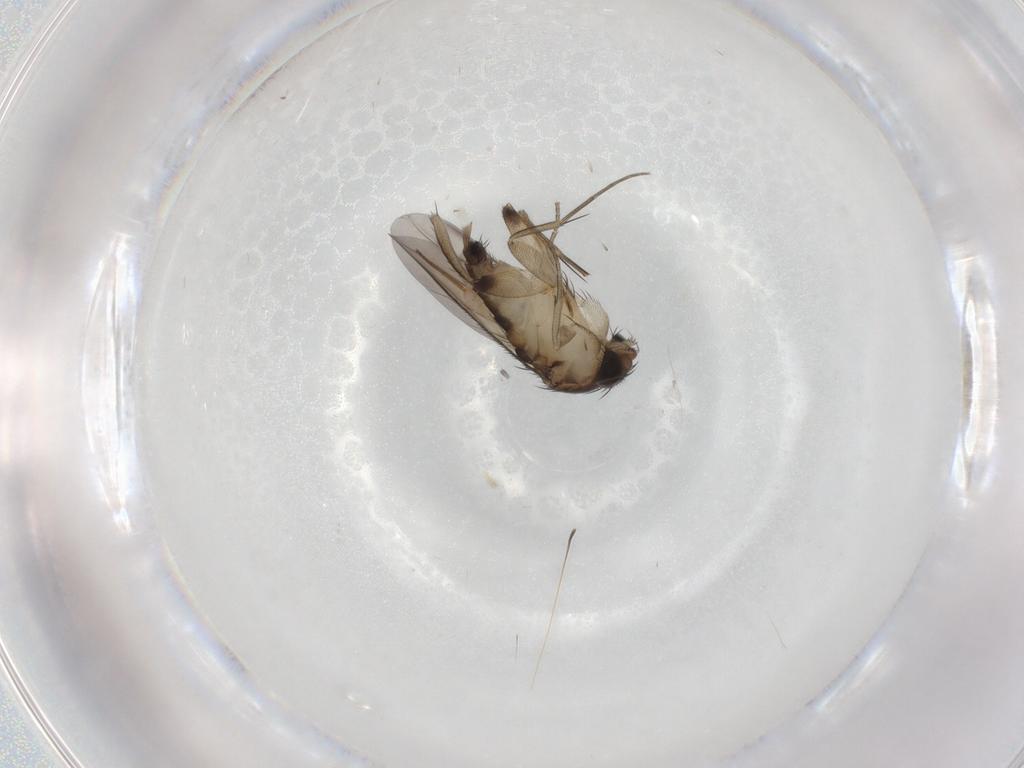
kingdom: Animalia
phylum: Arthropoda
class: Insecta
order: Diptera
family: Phoridae
